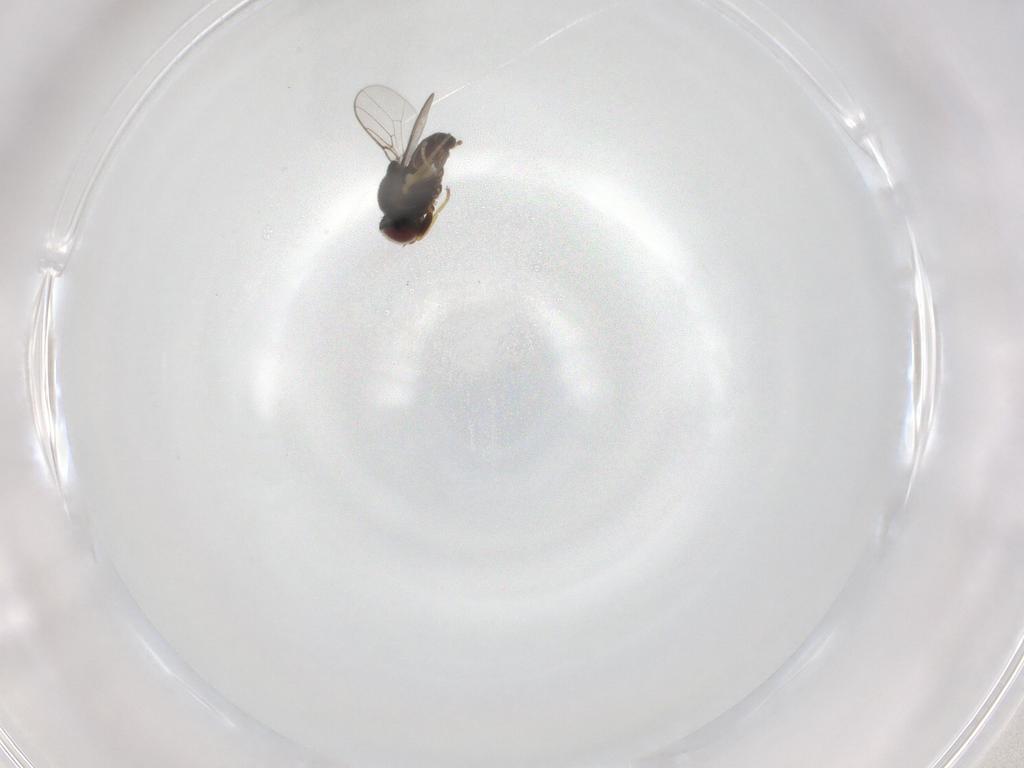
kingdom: Animalia
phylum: Arthropoda
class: Insecta
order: Diptera
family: Chloropidae
